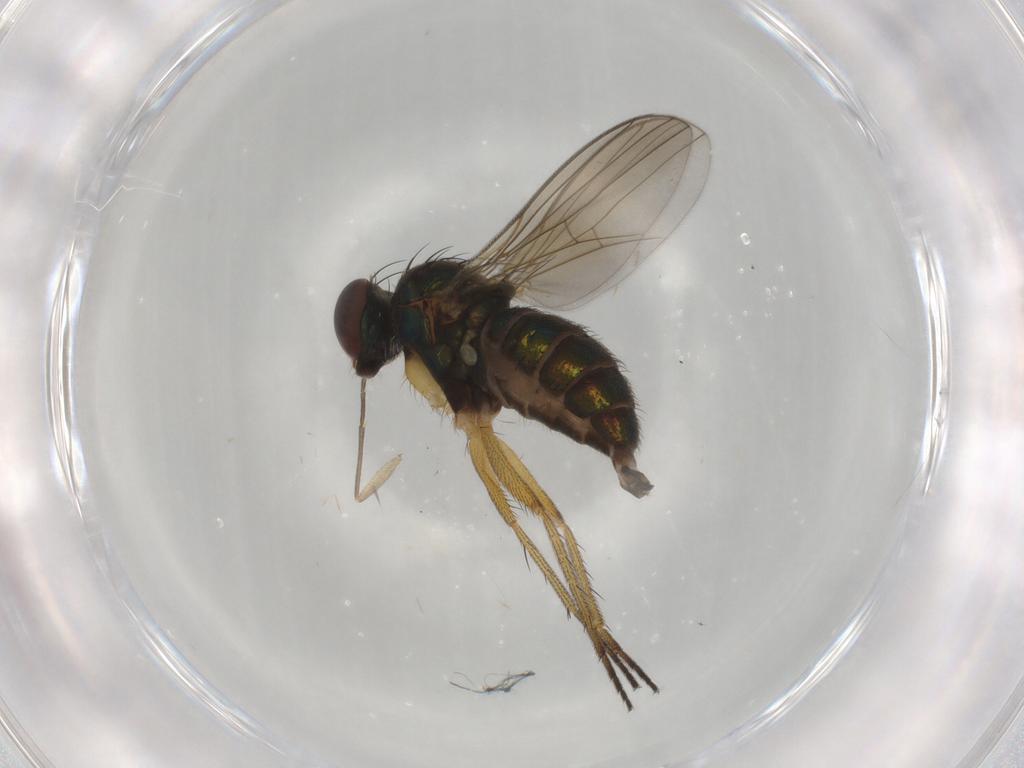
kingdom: Animalia
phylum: Arthropoda
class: Insecta
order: Diptera
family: Dolichopodidae
